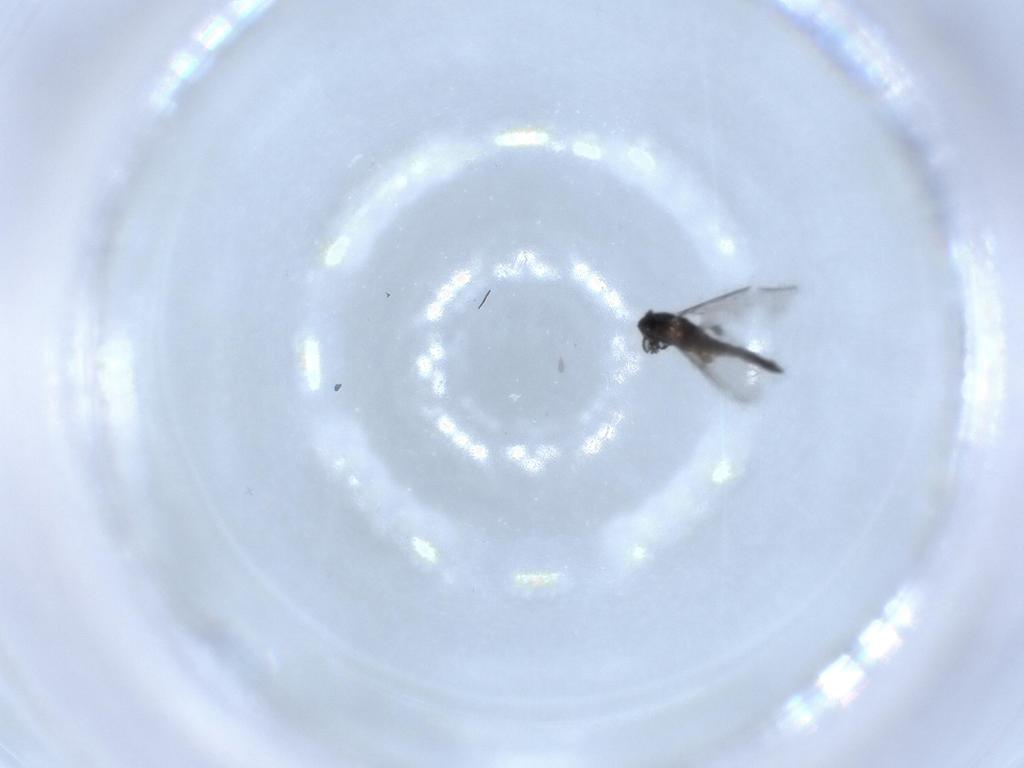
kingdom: Animalia
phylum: Arthropoda
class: Insecta
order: Diptera
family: Sciaridae
